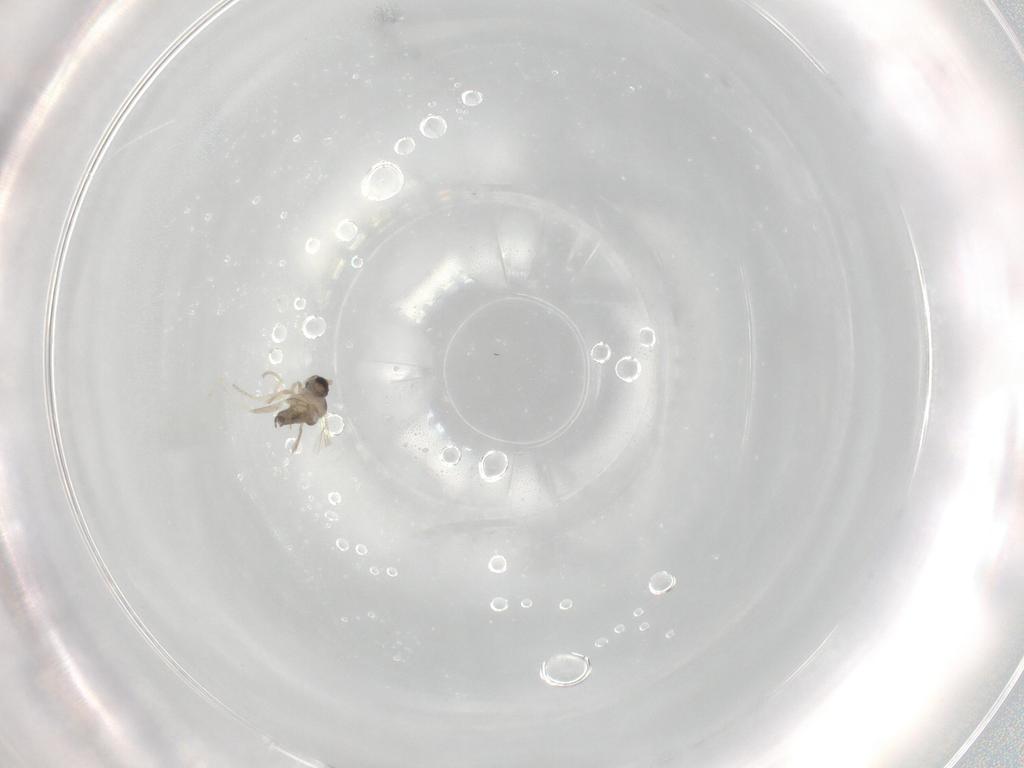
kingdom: Animalia
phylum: Arthropoda
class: Insecta
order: Diptera
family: Cecidomyiidae
